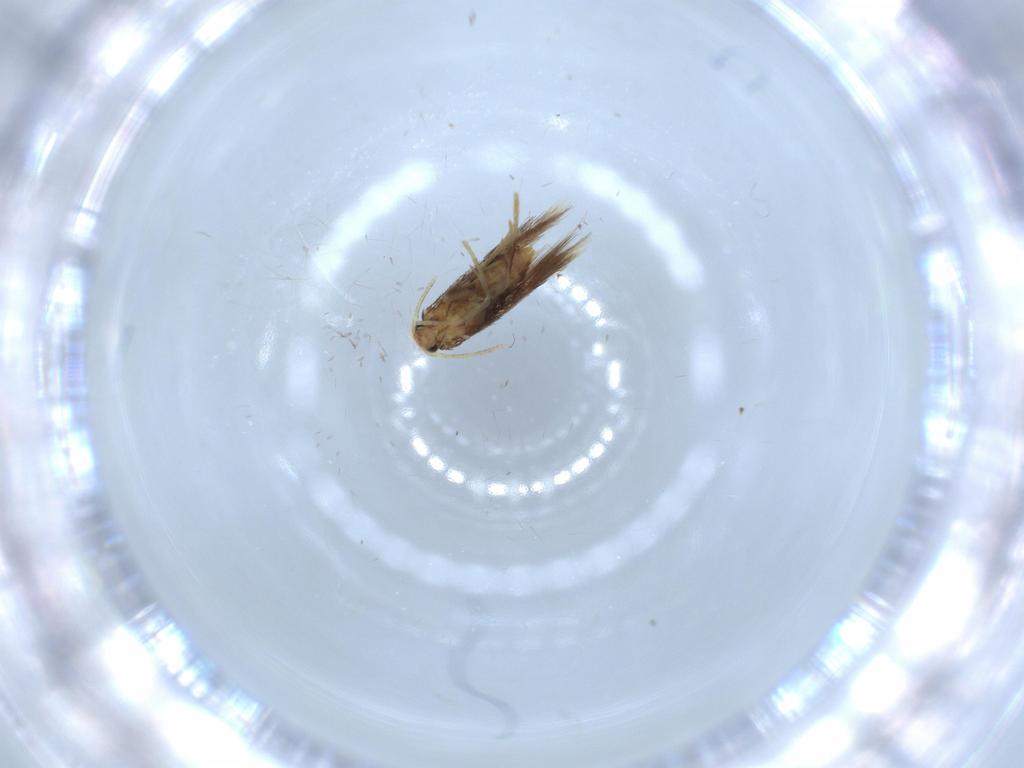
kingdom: Animalia
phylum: Arthropoda
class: Insecta
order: Lepidoptera
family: Nepticulidae
